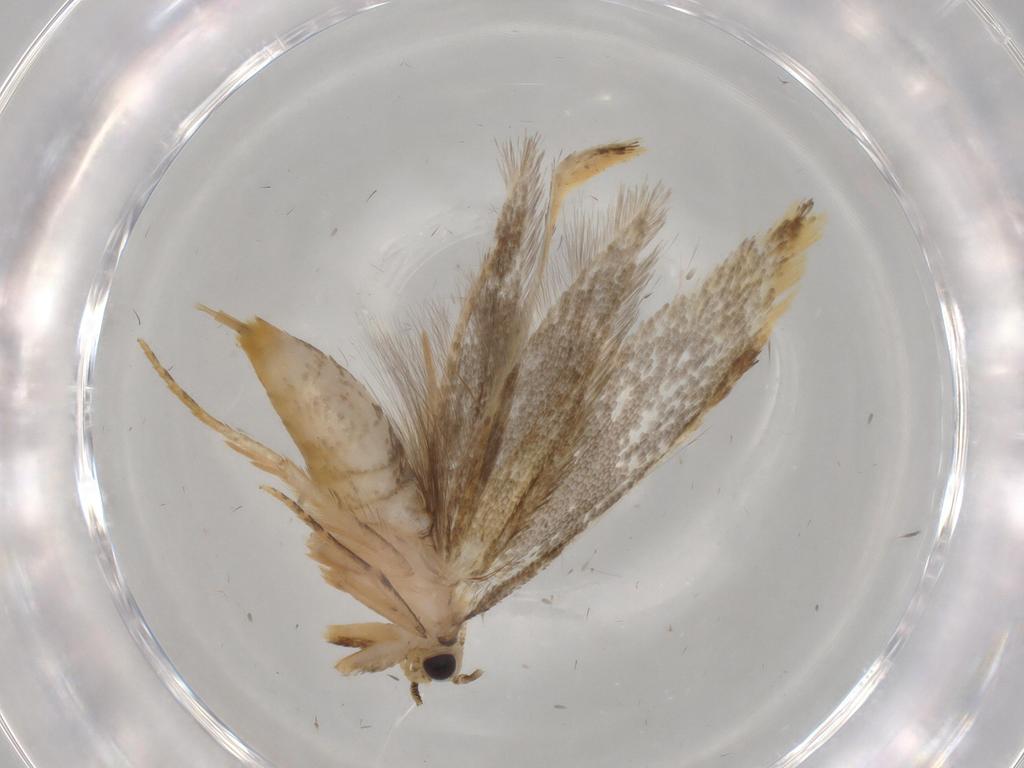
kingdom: Animalia
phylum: Arthropoda
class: Insecta
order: Lepidoptera
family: Tineidae
